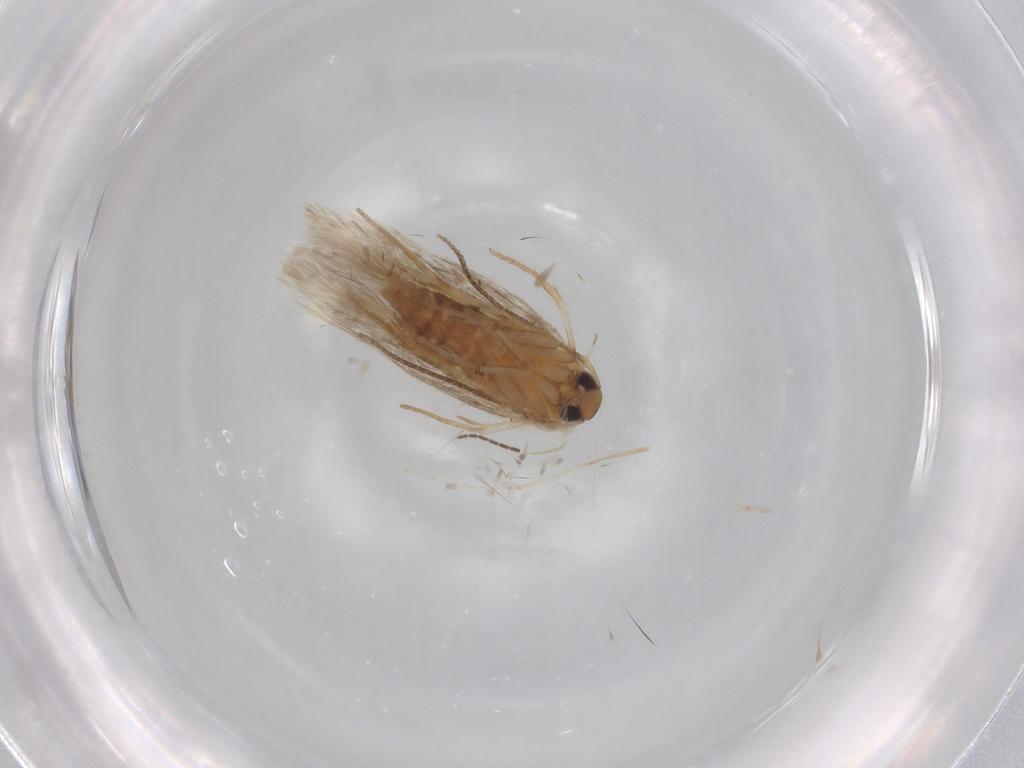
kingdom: Animalia
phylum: Arthropoda
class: Insecta
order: Lepidoptera
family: Cosmopterigidae
